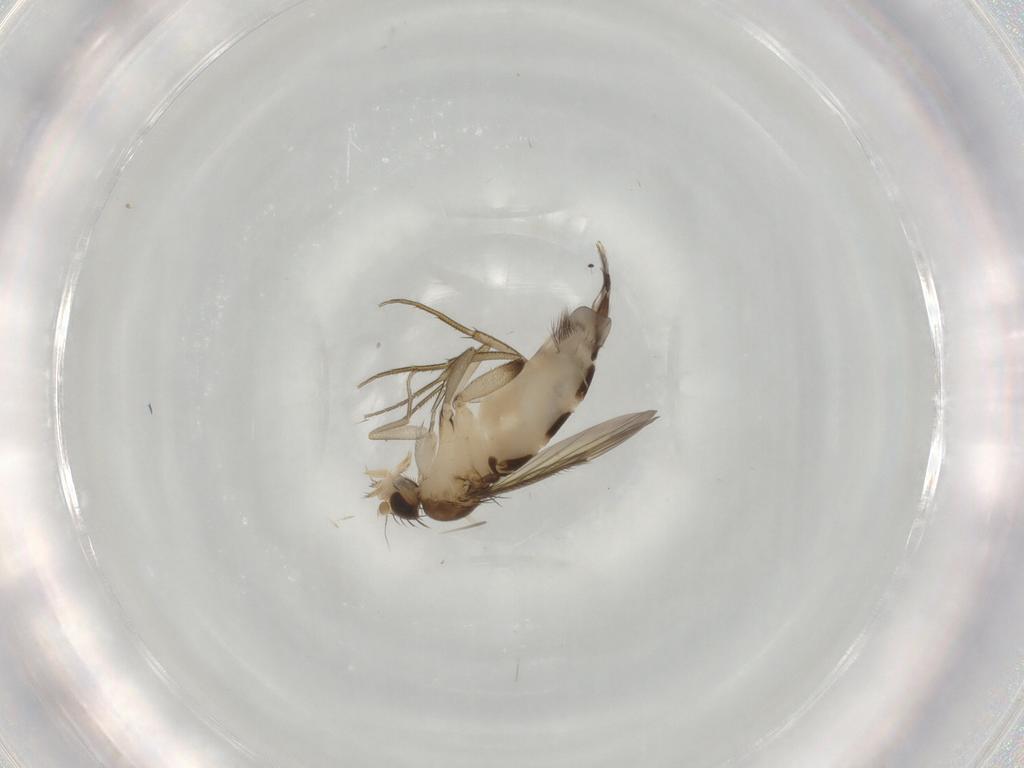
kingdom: Animalia
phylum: Arthropoda
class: Insecta
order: Diptera
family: Phoridae
